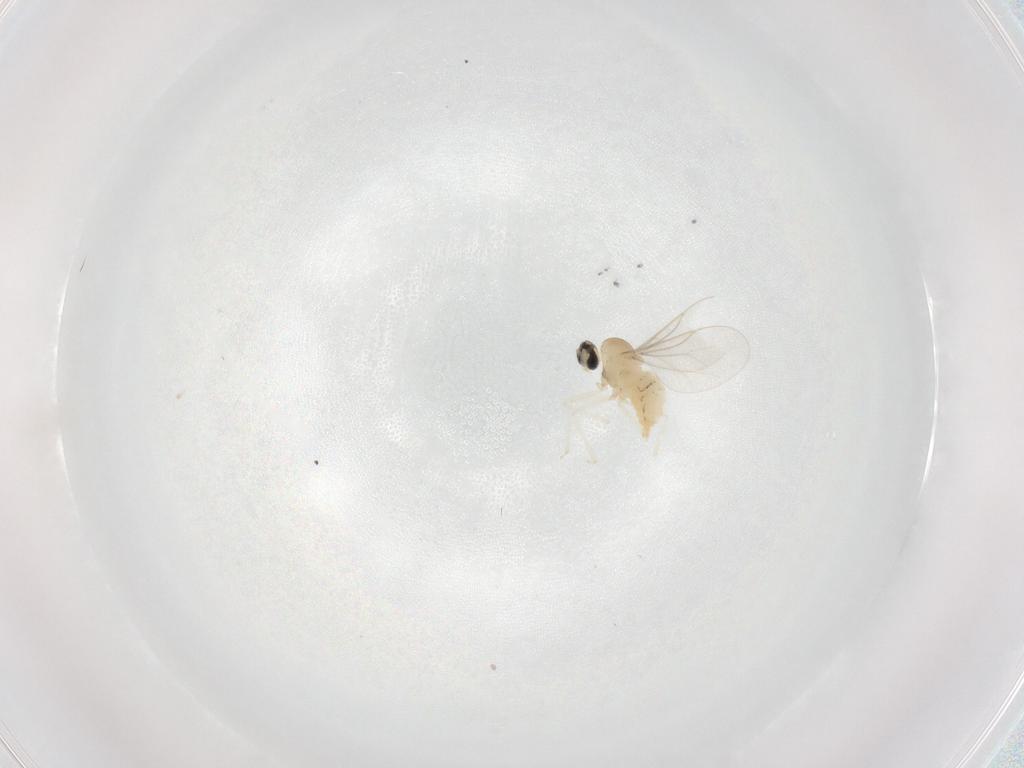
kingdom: Animalia
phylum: Arthropoda
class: Insecta
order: Diptera
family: Cecidomyiidae
